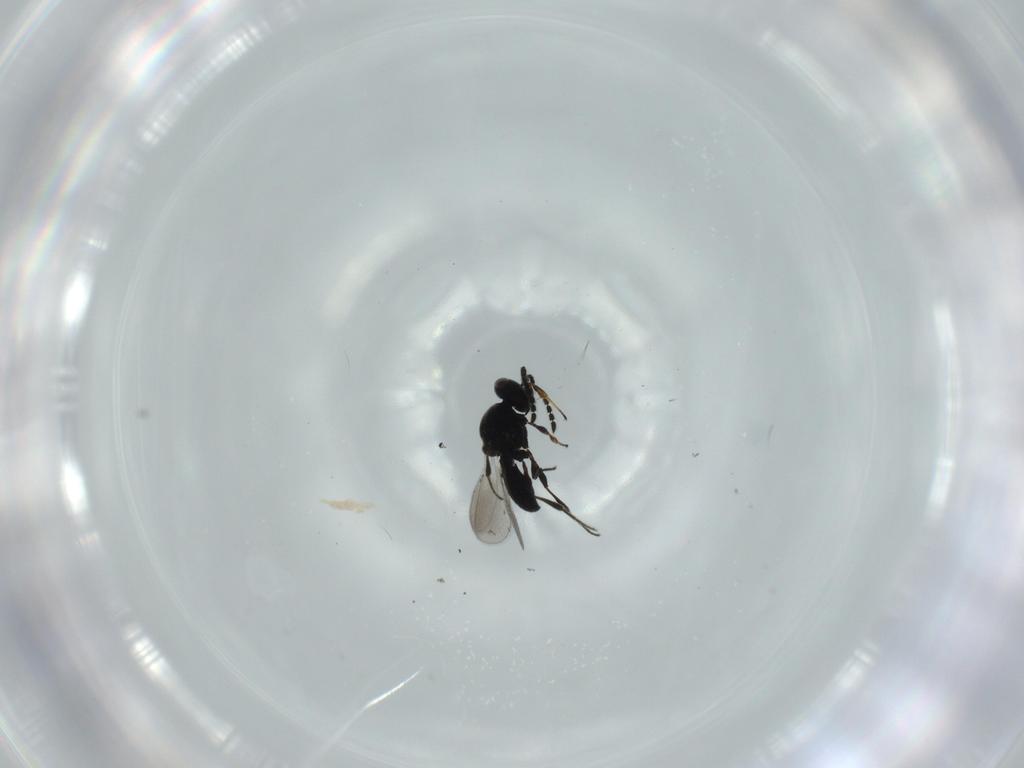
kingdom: Animalia
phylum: Arthropoda
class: Insecta
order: Hymenoptera
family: Platygastridae
